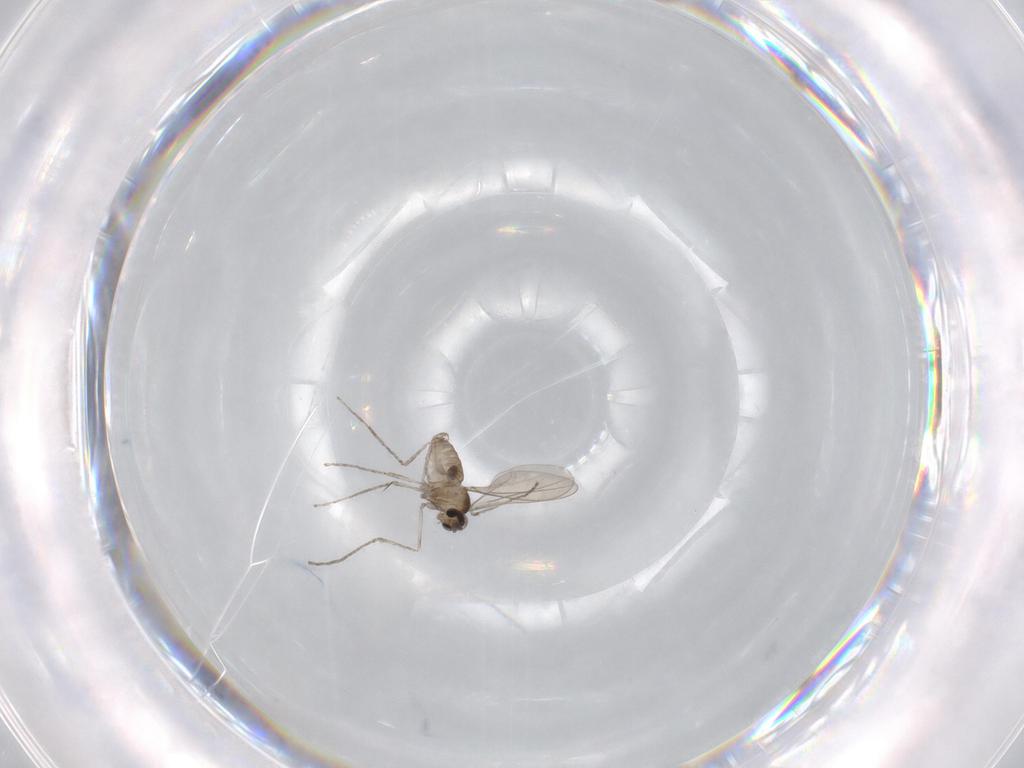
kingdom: Animalia
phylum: Arthropoda
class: Insecta
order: Diptera
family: Cecidomyiidae
